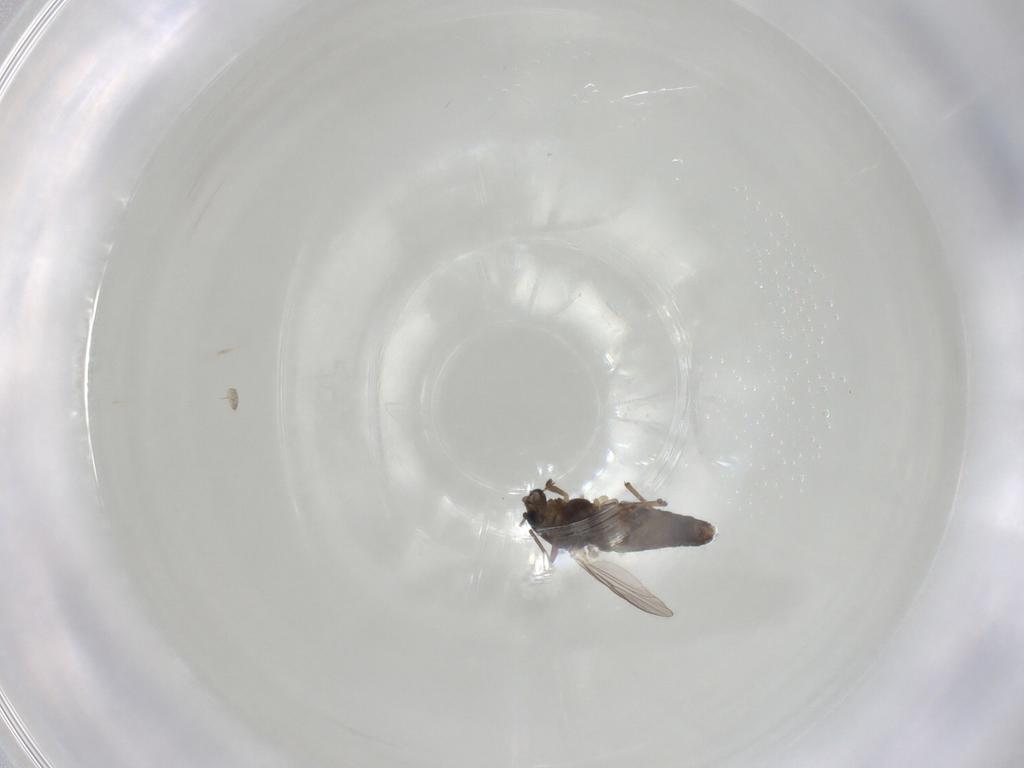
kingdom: Animalia
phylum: Arthropoda
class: Insecta
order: Diptera
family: Chironomidae
